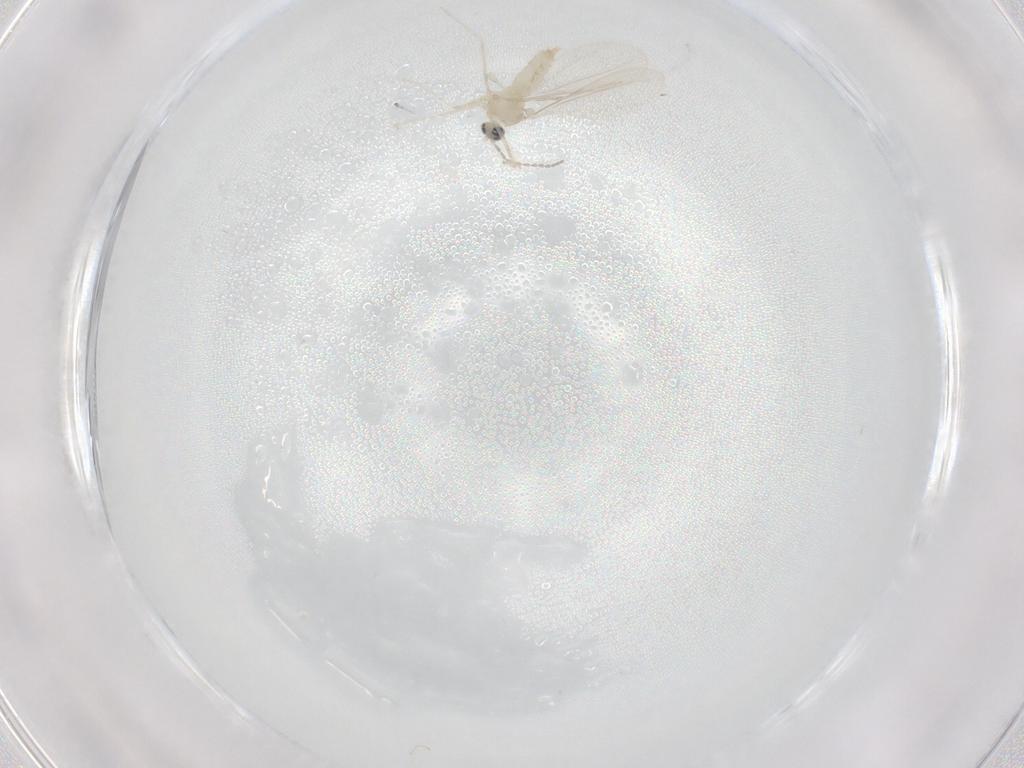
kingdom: Animalia
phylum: Arthropoda
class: Insecta
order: Diptera
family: Cecidomyiidae
